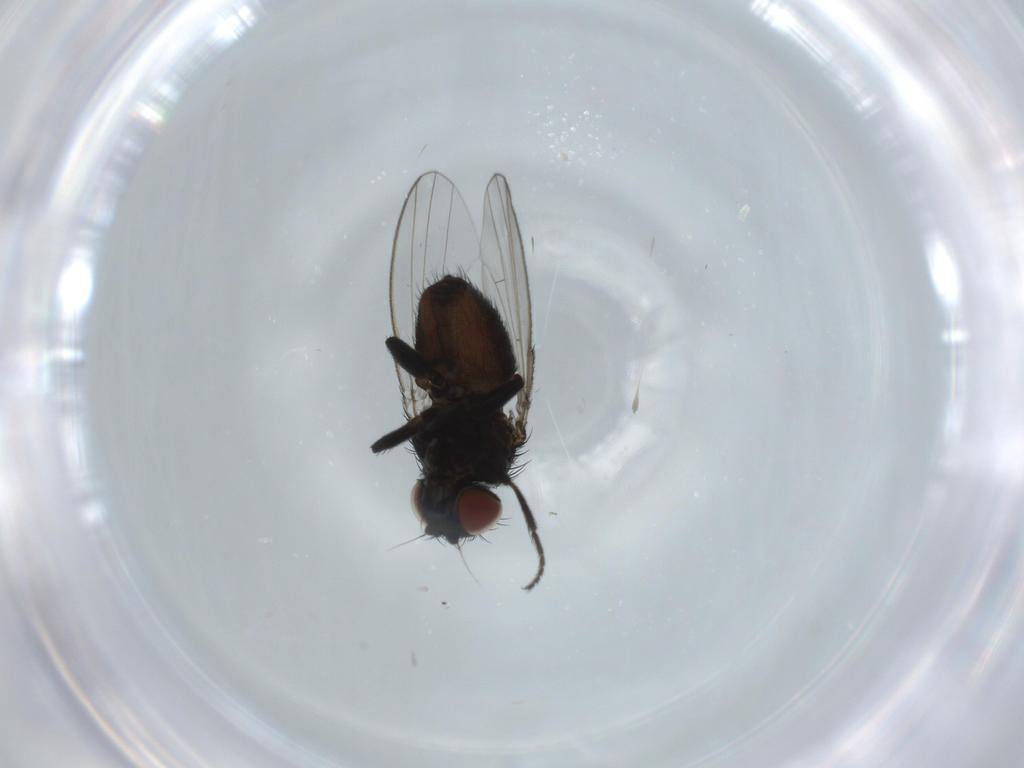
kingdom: Animalia
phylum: Arthropoda
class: Insecta
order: Diptera
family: Milichiidae
